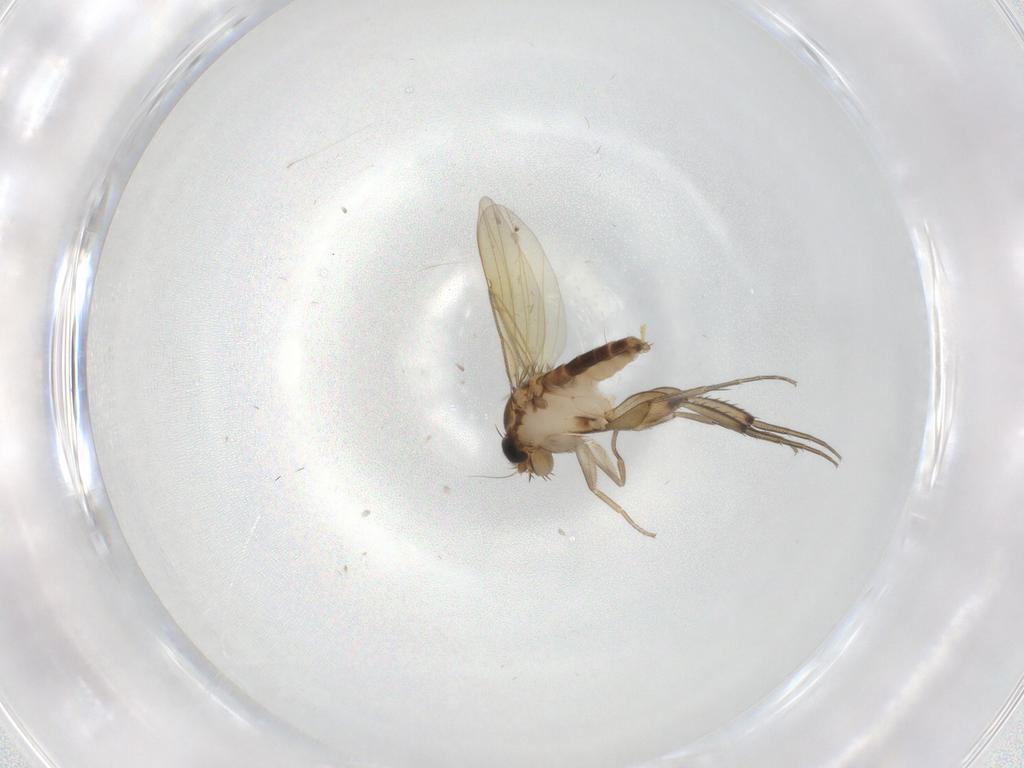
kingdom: Animalia
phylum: Arthropoda
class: Insecta
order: Diptera
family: Phoridae
